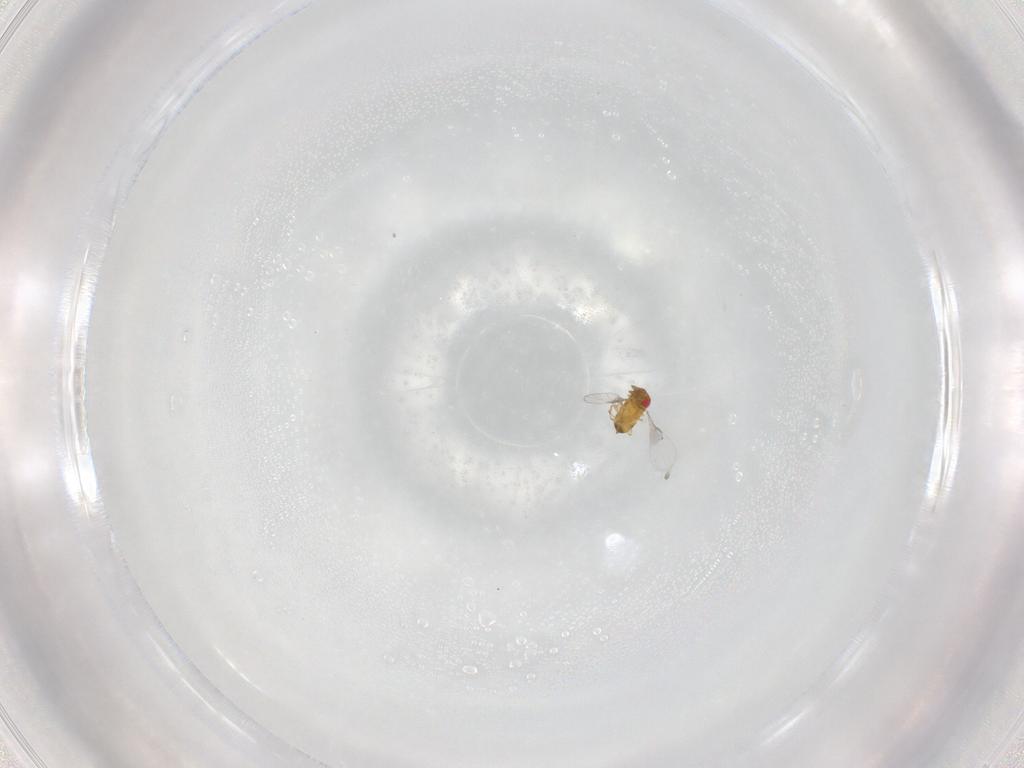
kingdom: Animalia
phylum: Arthropoda
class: Insecta
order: Hymenoptera
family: Trichogrammatidae
